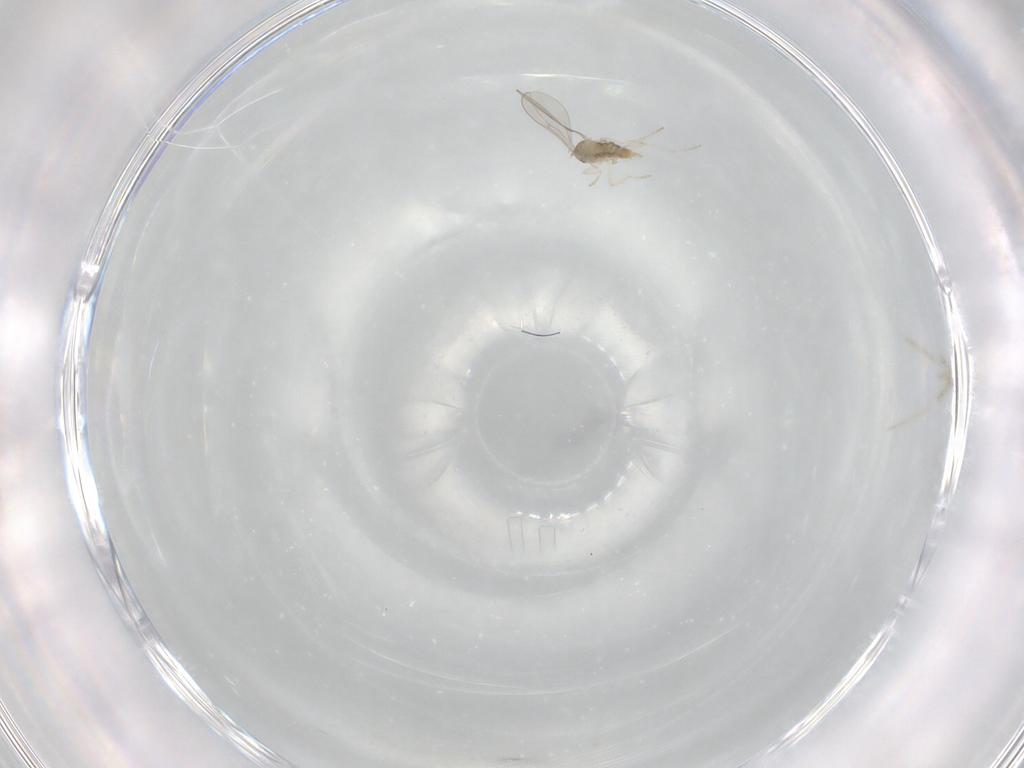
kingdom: Animalia
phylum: Arthropoda
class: Insecta
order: Diptera
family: Cecidomyiidae
